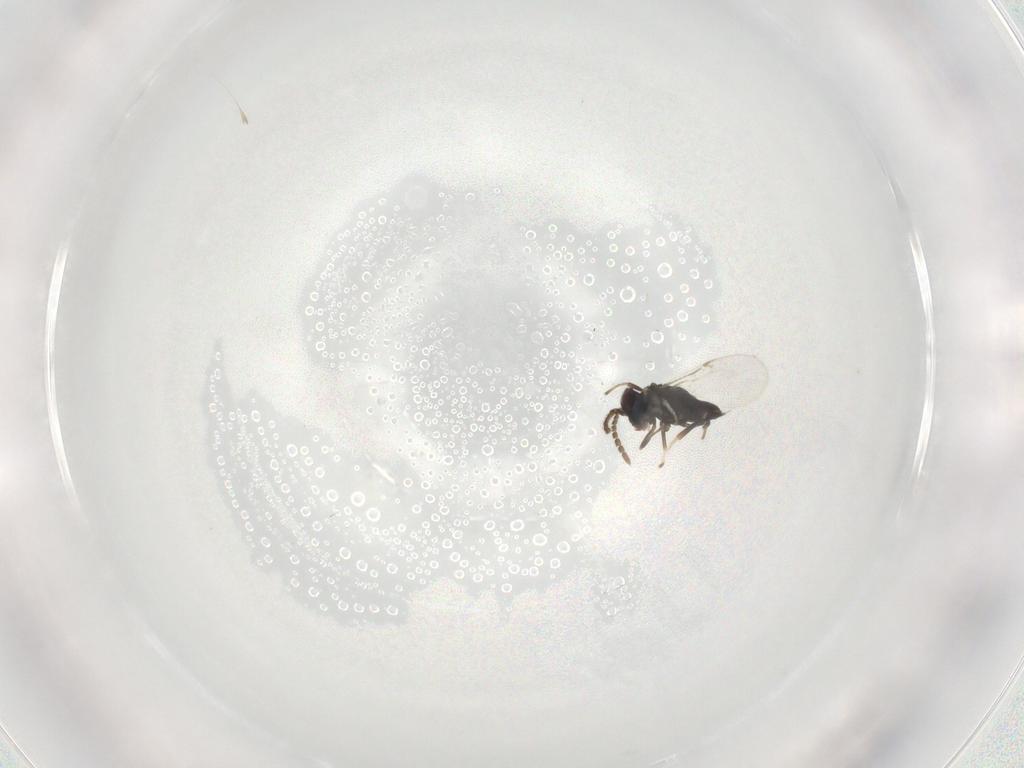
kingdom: Animalia
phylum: Arthropoda
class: Insecta
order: Hymenoptera
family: Encyrtidae
